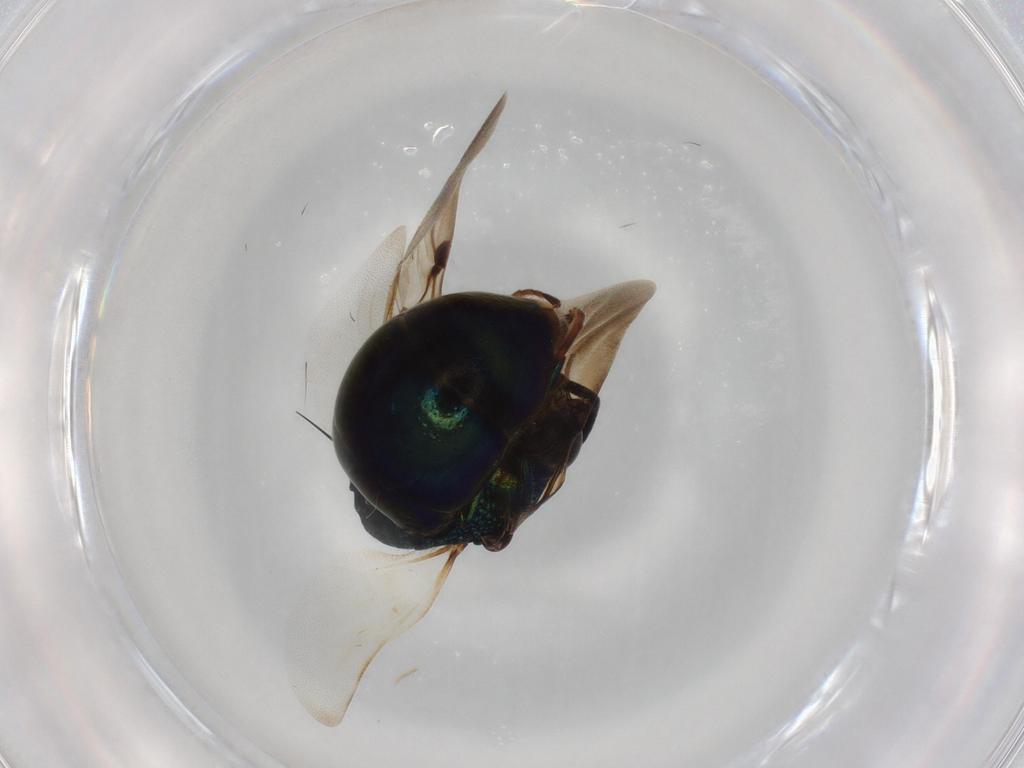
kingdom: Animalia
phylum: Arthropoda
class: Insecta
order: Hymenoptera
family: Chrysididae
